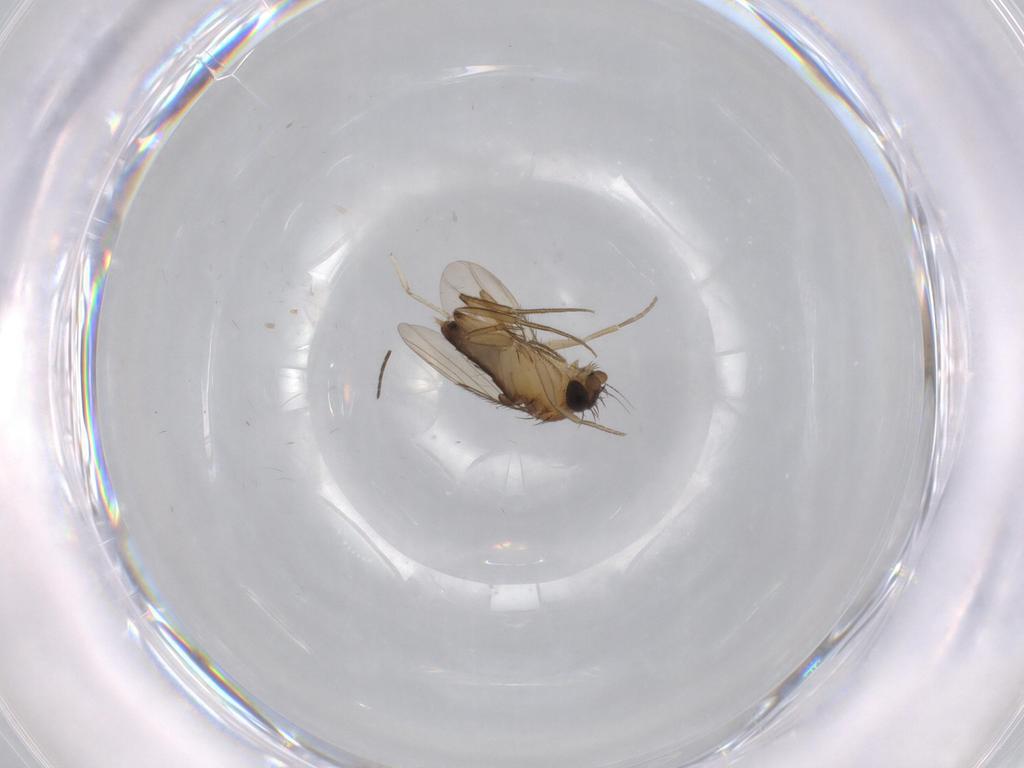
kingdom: Animalia
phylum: Arthropoda
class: Insecta
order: Diptera
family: Phoridae
